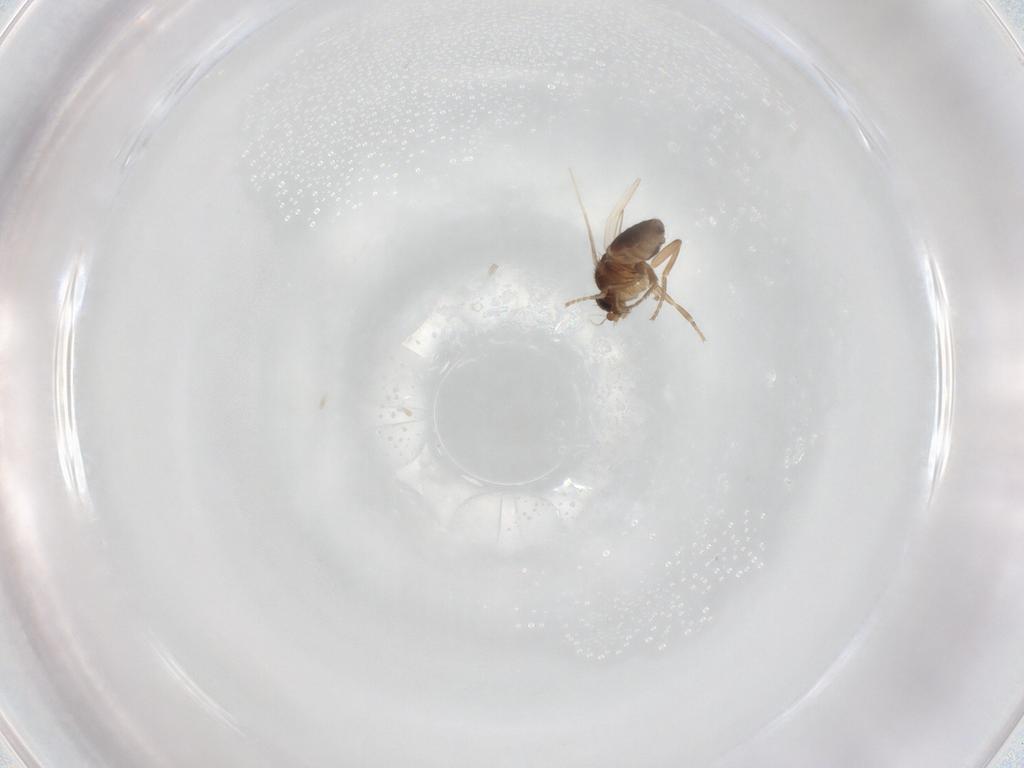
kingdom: Animalia
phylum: Arthropoda
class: Insecta
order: Diptera
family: Phoridae
